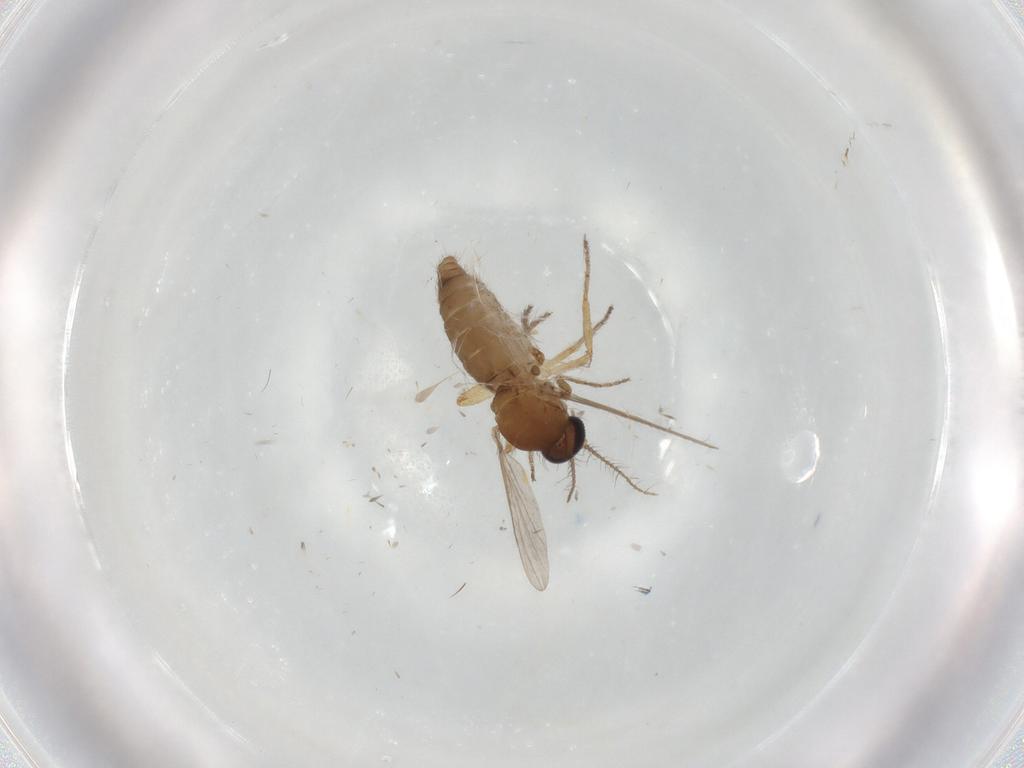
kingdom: Animalia
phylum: Arthropoda
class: Insecta
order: Diptera
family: Ceratopogonidae
